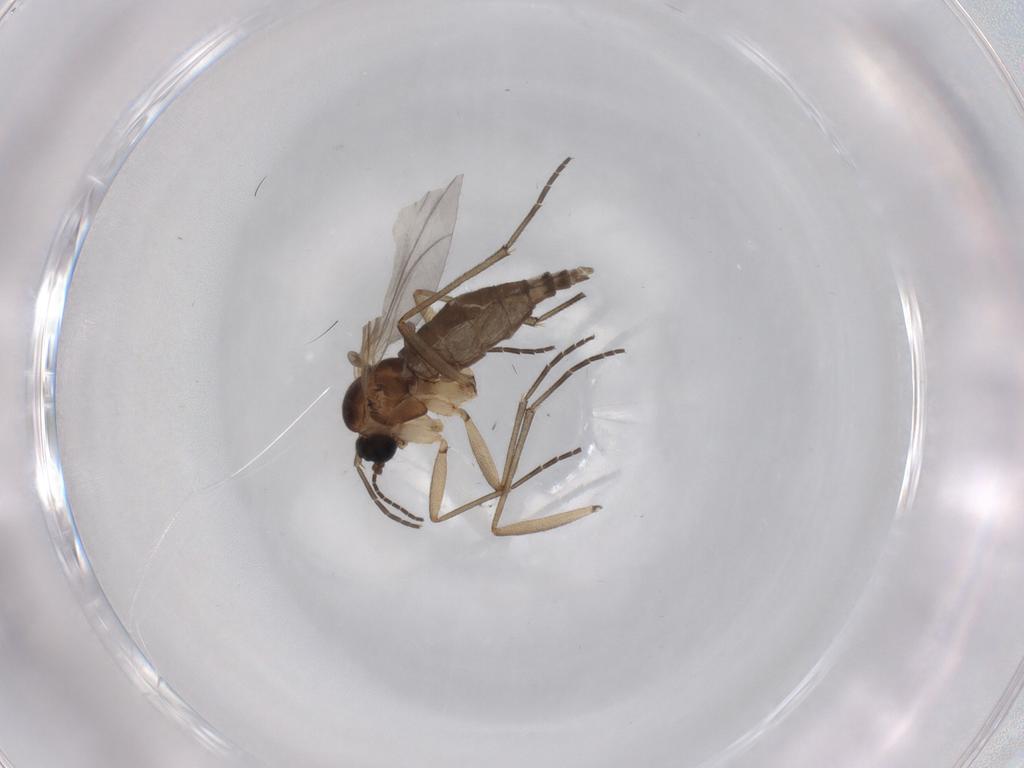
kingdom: Animalia
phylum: Arthropoda
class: Insecta
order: Diptera
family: Sciaridae
